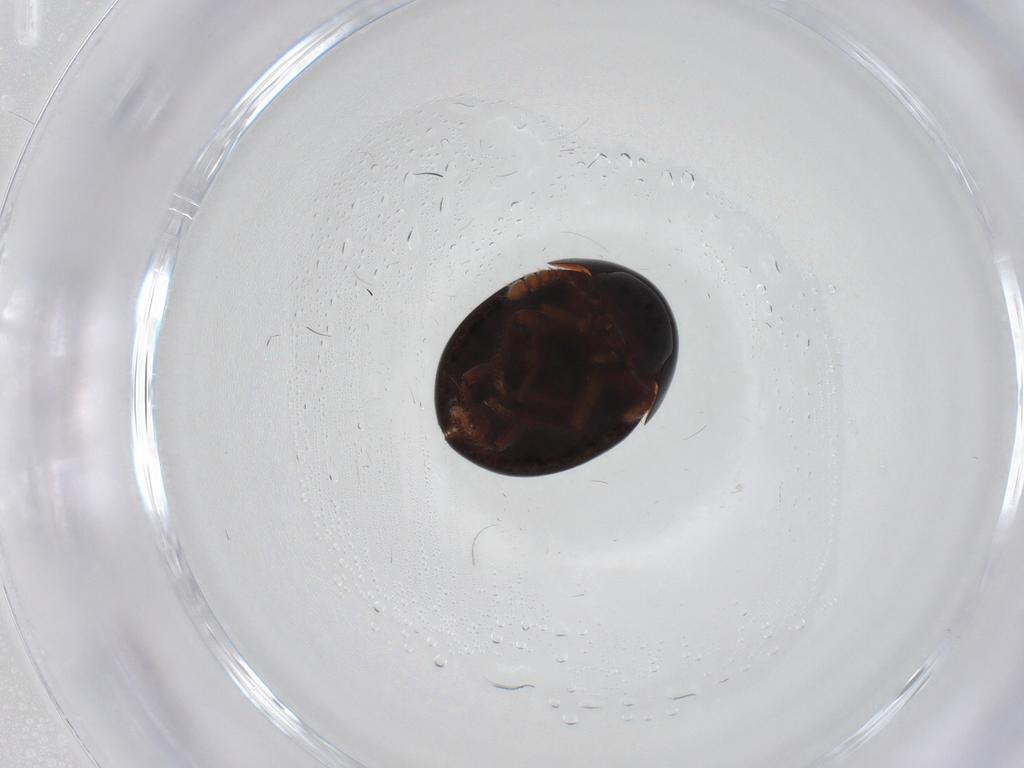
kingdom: Animalia
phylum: Arthropoda
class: Insecta
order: Coleoptera
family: Leiodidae
